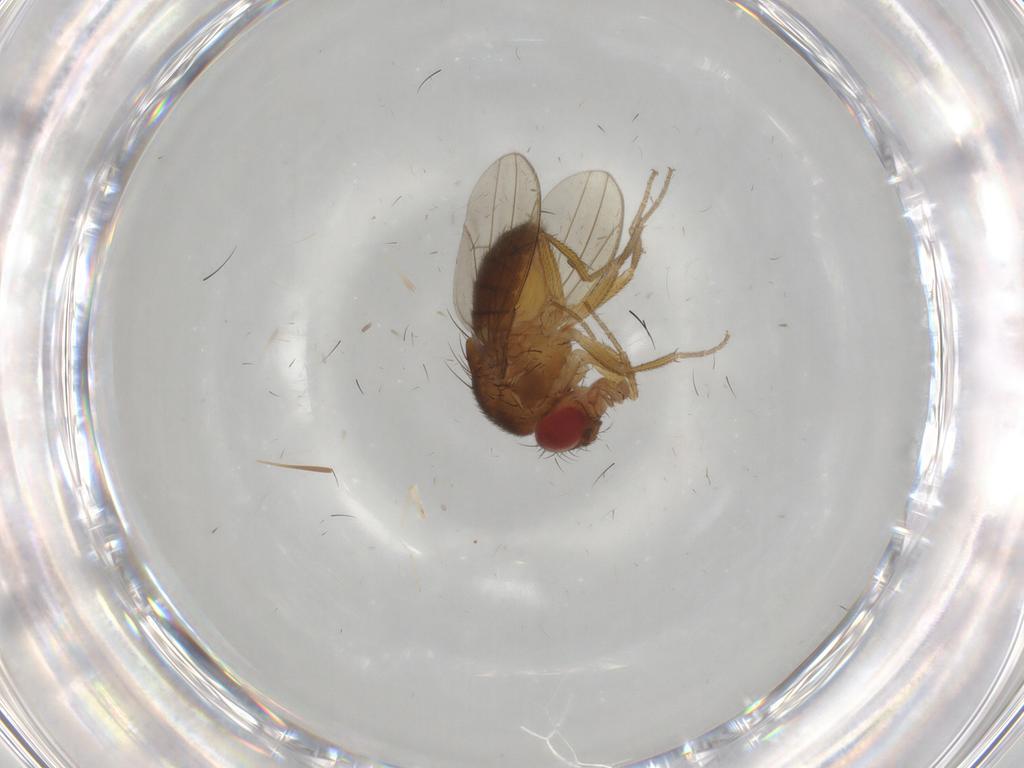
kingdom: Animalia
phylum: Arthropoda
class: Insecta
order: Diptera
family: Drosophilidae
